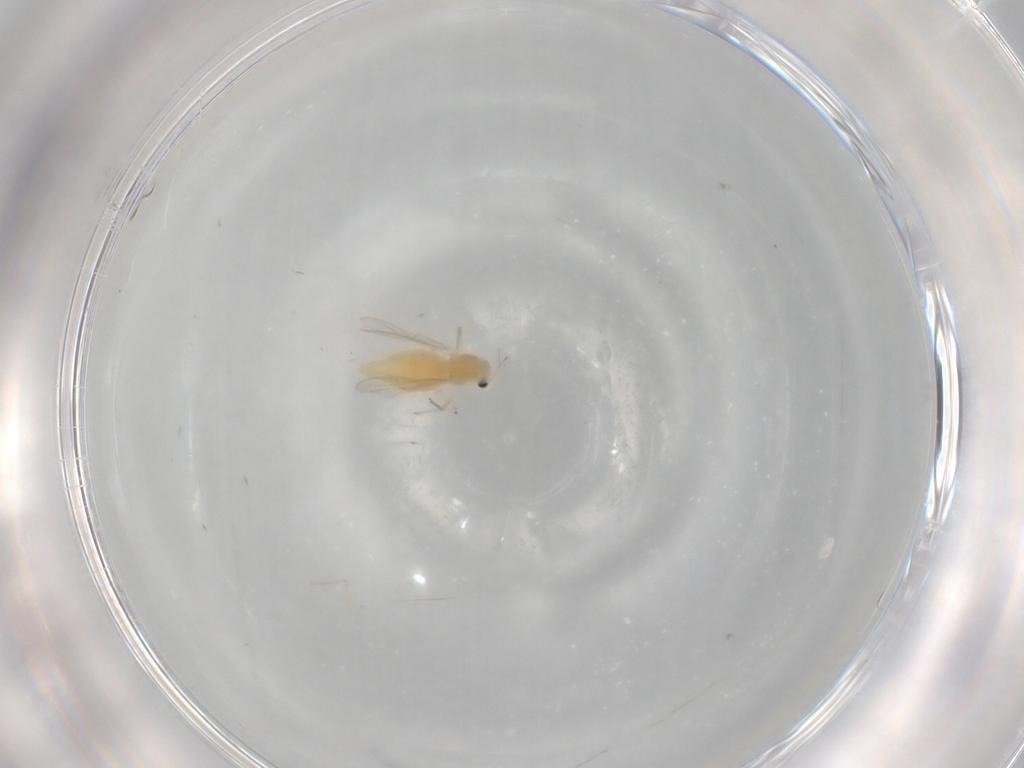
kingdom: Animalia
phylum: Arthropoda
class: Insecta
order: Diptera
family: Chironomidae
